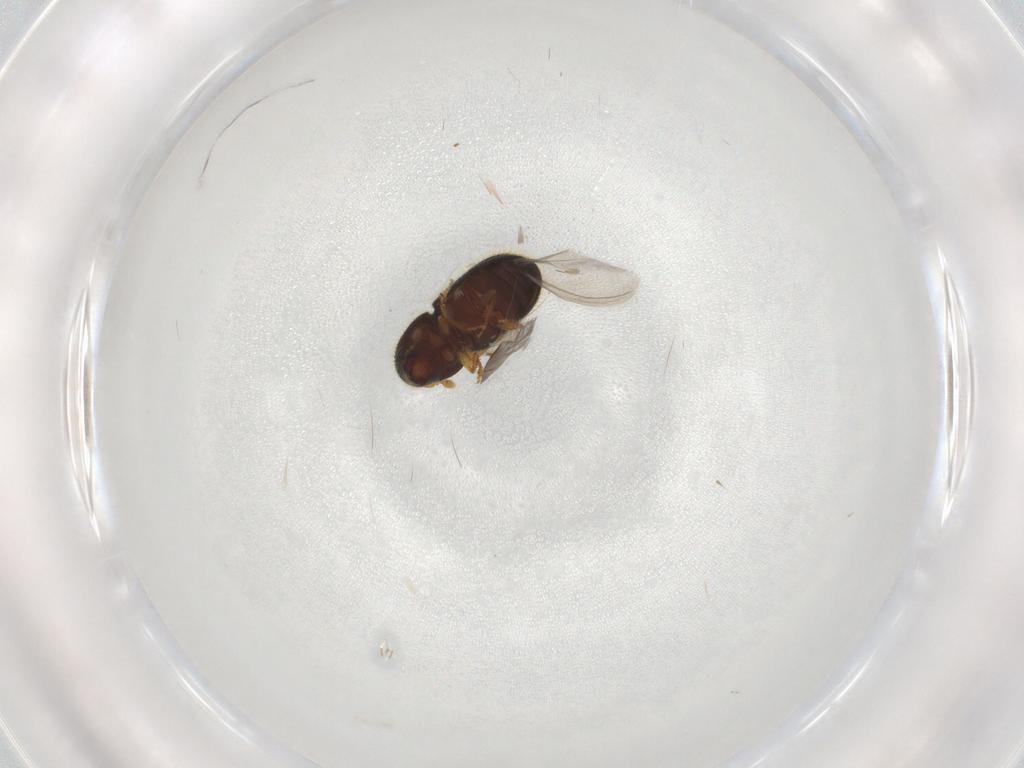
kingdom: Animalia
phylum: Arthropoda
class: Insecta
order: Coleoptera
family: Curculionidae
